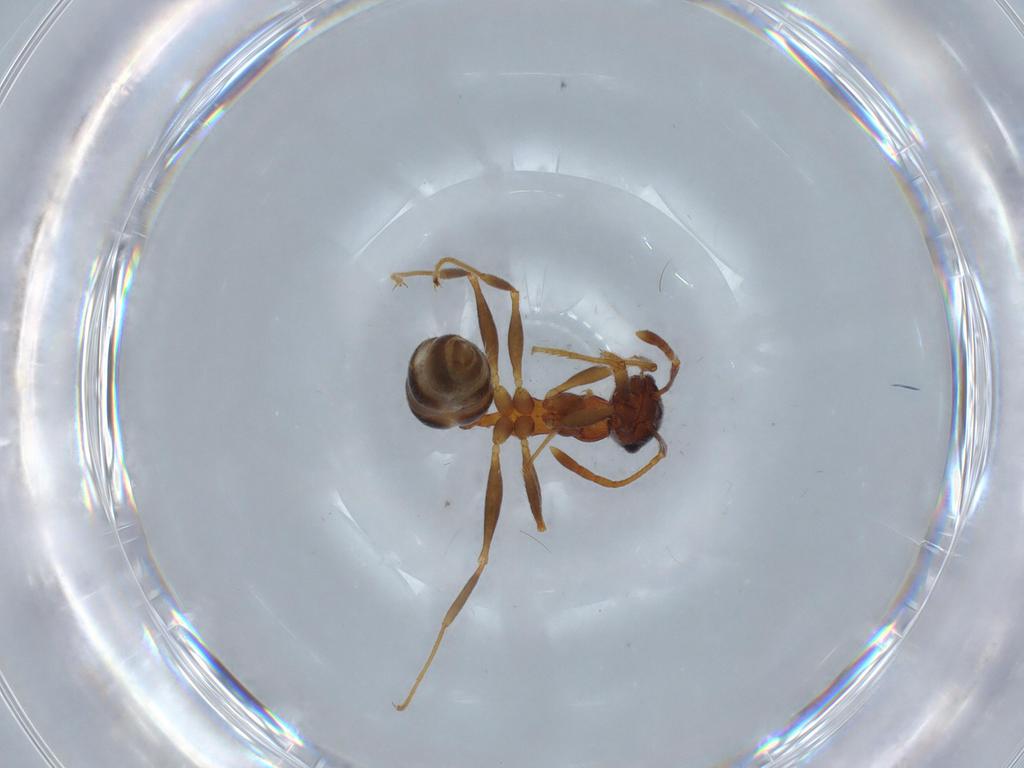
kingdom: Animalia
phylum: Arthropoda
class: Insecta
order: Hymenoptera
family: Formicidae
